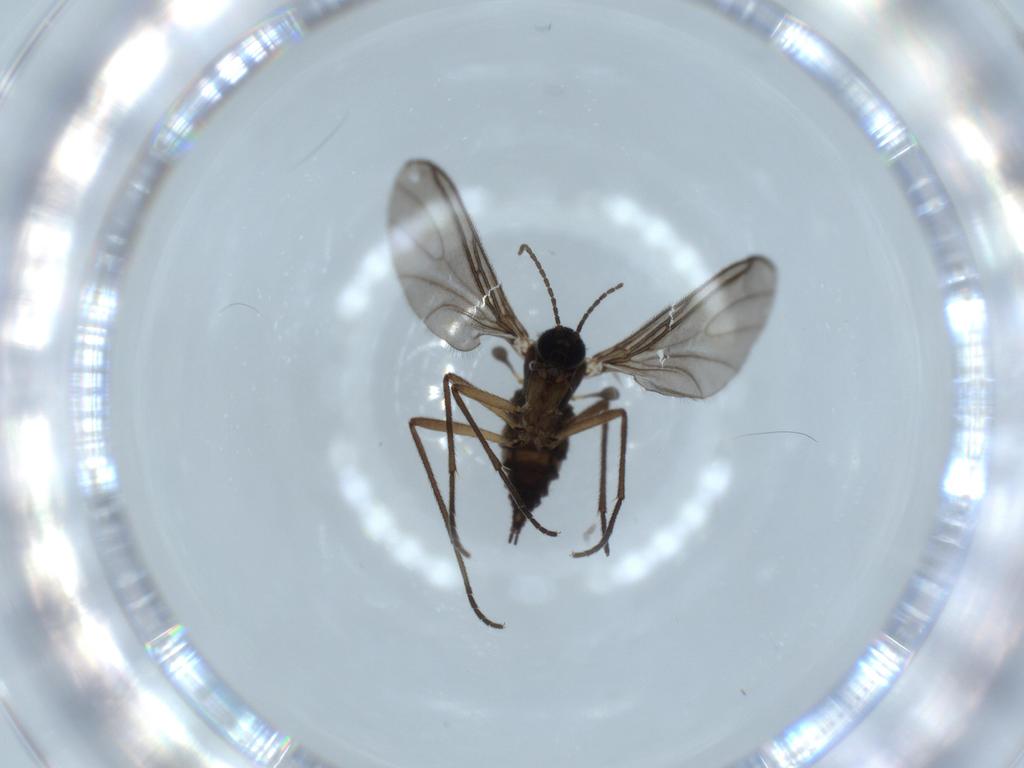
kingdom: Animalia
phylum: Arthropoda
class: Insecta
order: Diptera
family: Sciaridae
